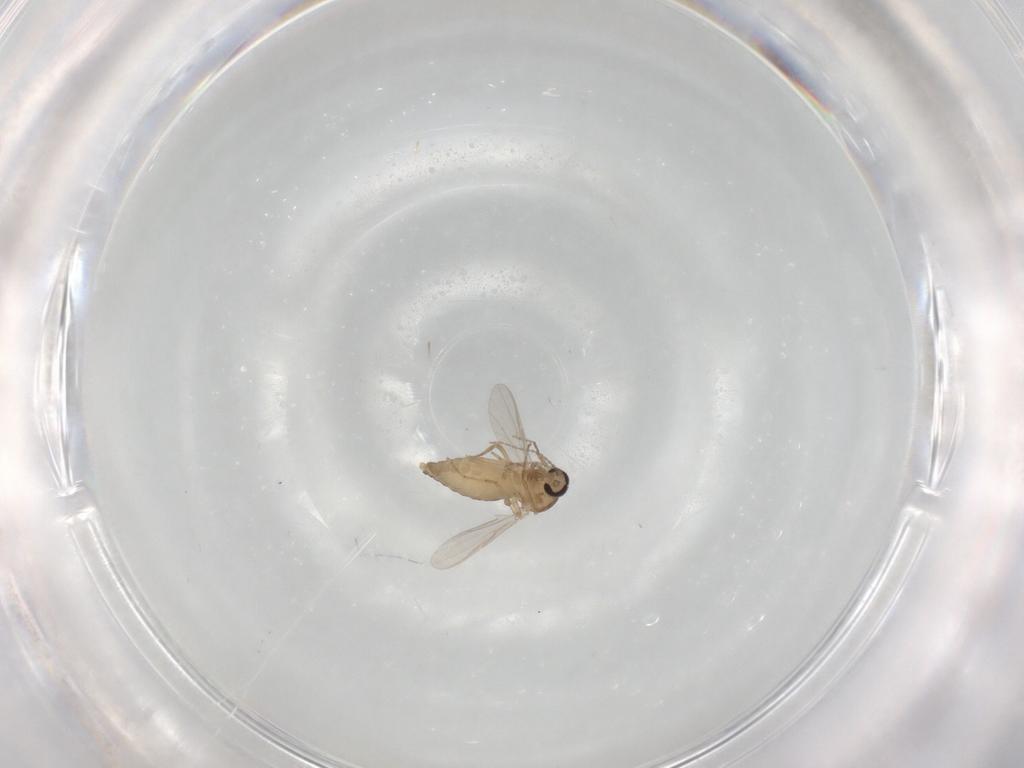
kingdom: Animalia
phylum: Arthropoda
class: Insecta
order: Diptera
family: Ceratopogonidae
